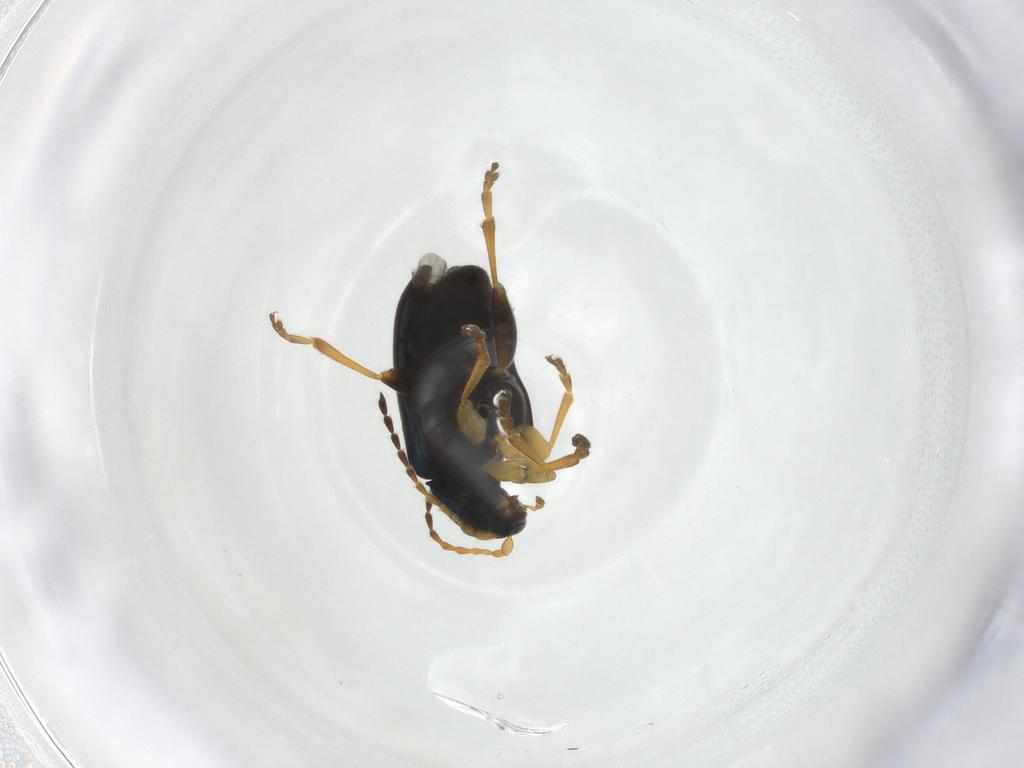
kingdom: Animalia
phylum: Arthropoda
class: Insecta
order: Coleoptera
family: Chrysomelidae
